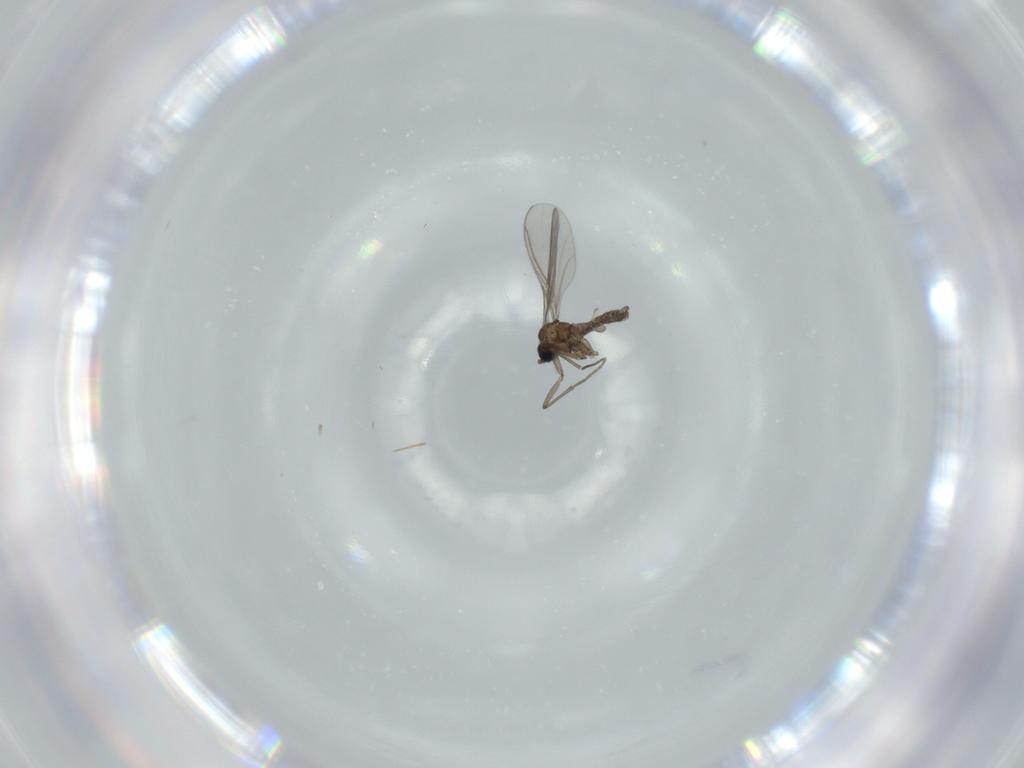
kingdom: Animalia
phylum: Arthropoda
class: Insecta
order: Diptera
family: Sciaridae
